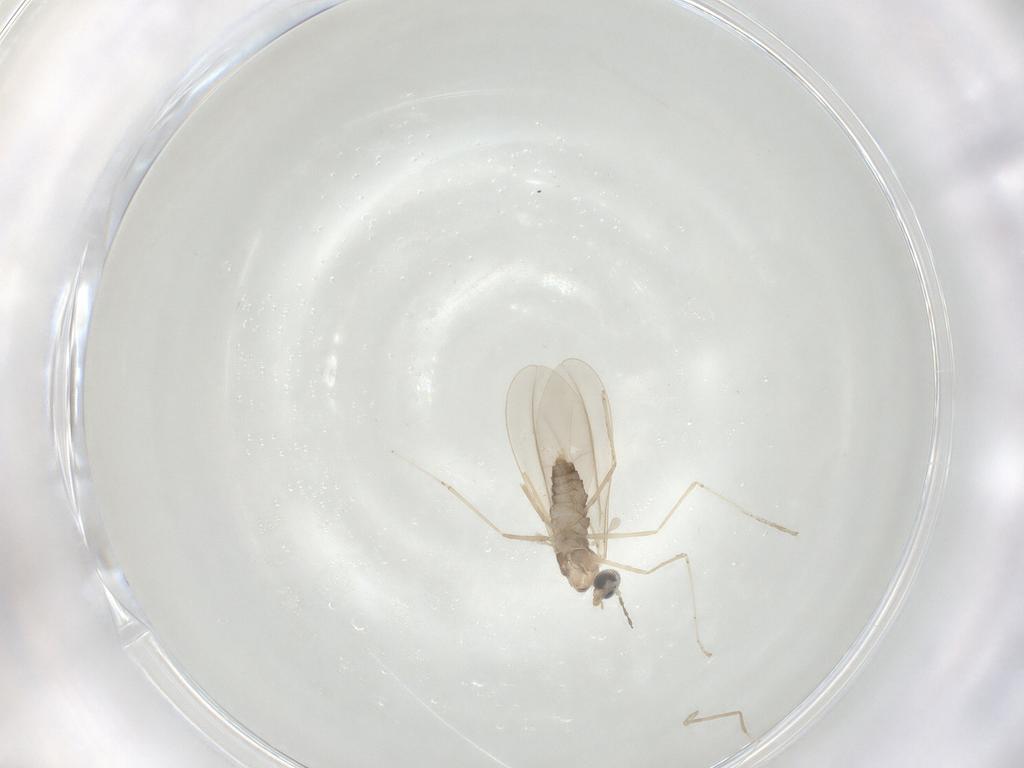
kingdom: Animalia
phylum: Arthropoda
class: Insecta
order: Diptera
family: Cecidomyiidae
